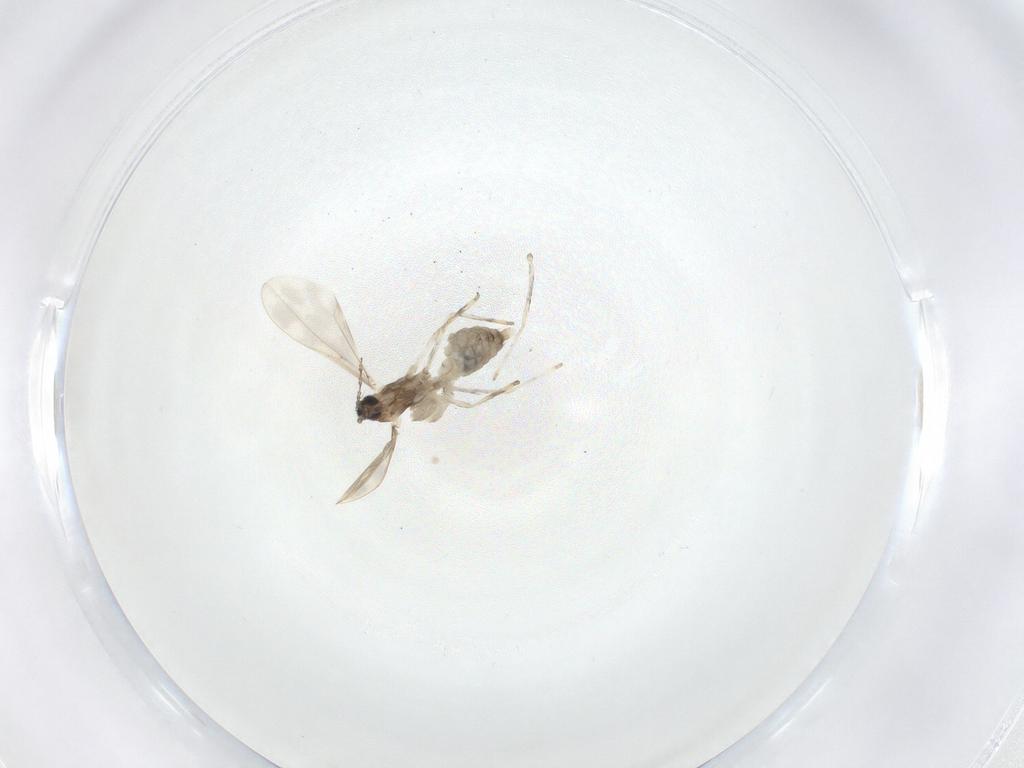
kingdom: Animalia
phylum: Arthropoda
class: Insecta
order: Diptera
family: Cecidomyiidae
